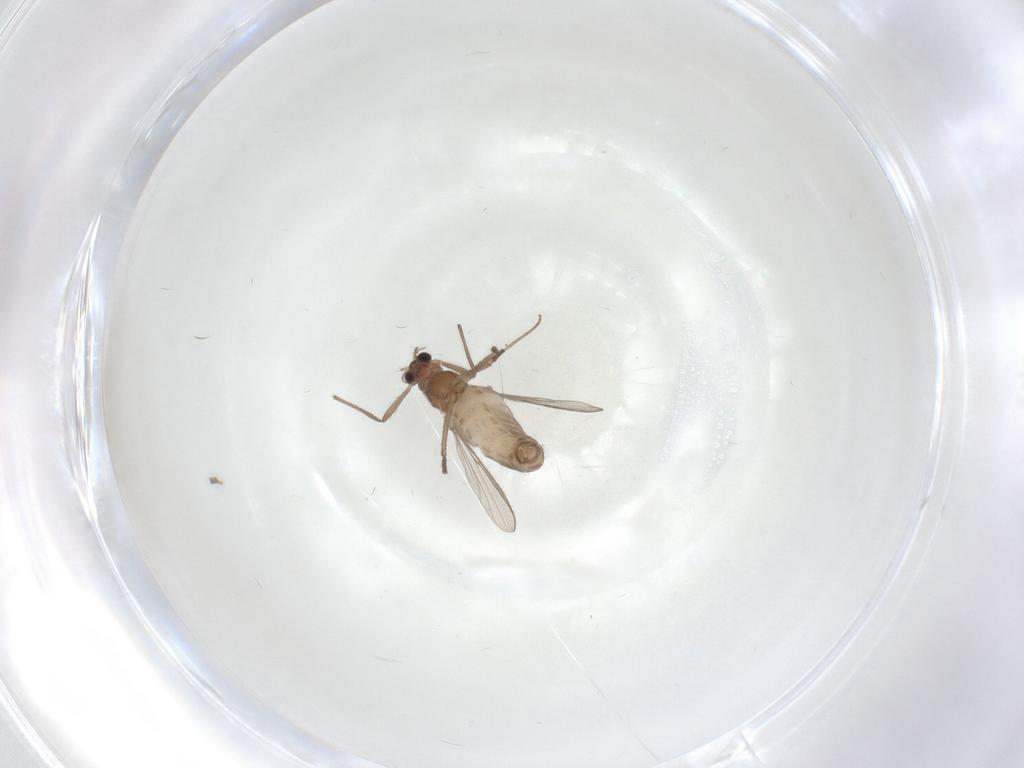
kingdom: Animalia
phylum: Arthropoda
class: Insecta
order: Diptera
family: Chironomidae
